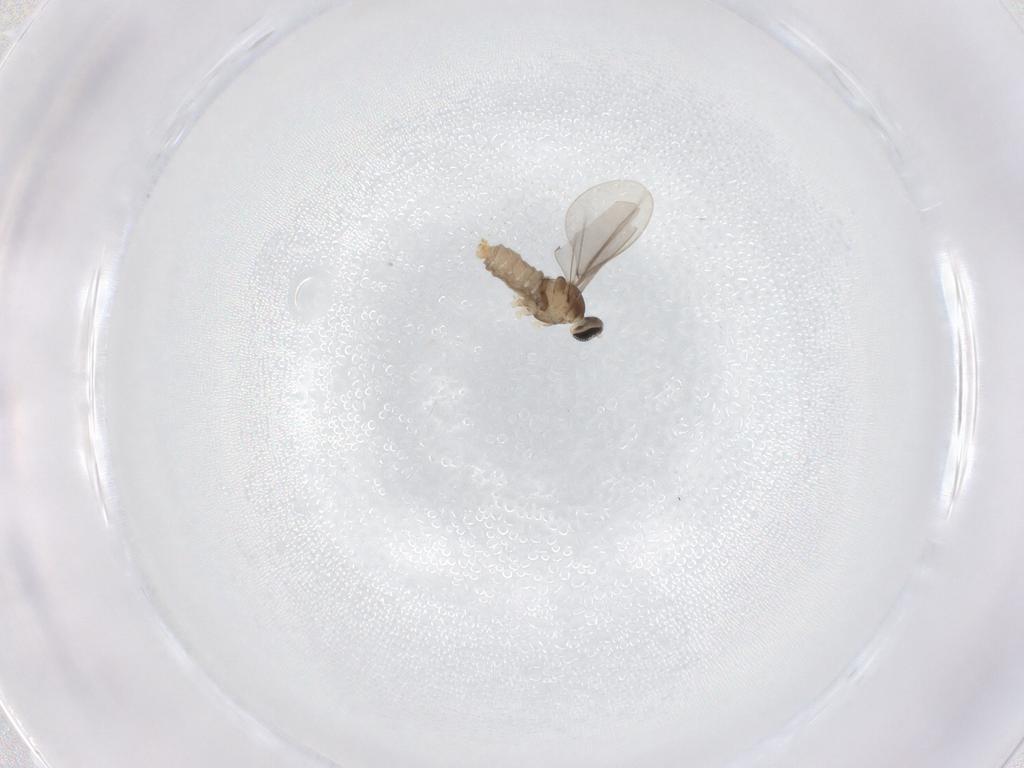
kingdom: Animalia
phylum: Arthropoda
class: Insecta
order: Diptera
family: Cecidomyiidae
